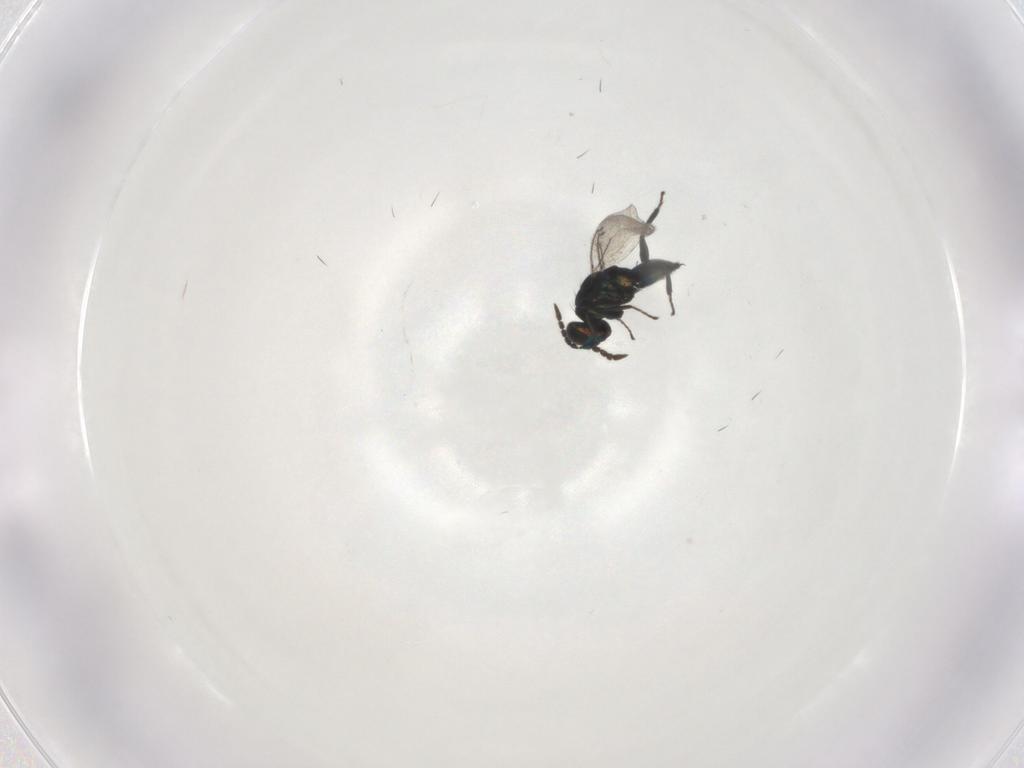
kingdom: Animalia
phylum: Arthropoda
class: Insecta
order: Hymenoptera
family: Eulophidae
